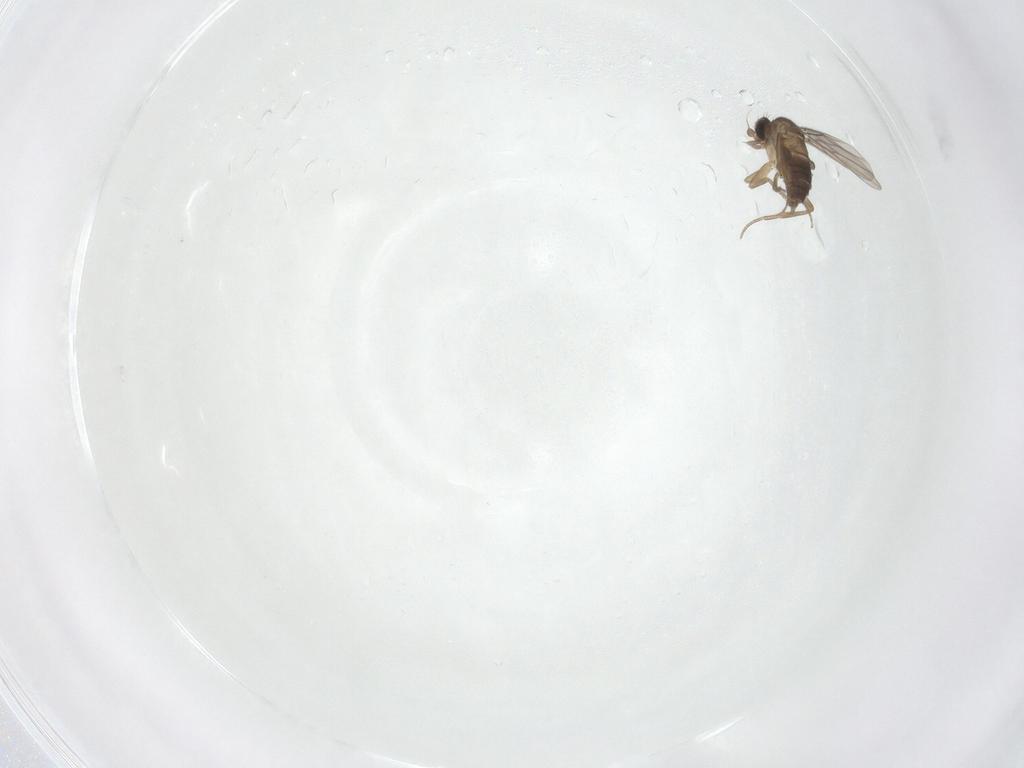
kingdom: Animalia
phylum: Arthropoda
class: Insecta
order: Diptera
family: Phoridae
